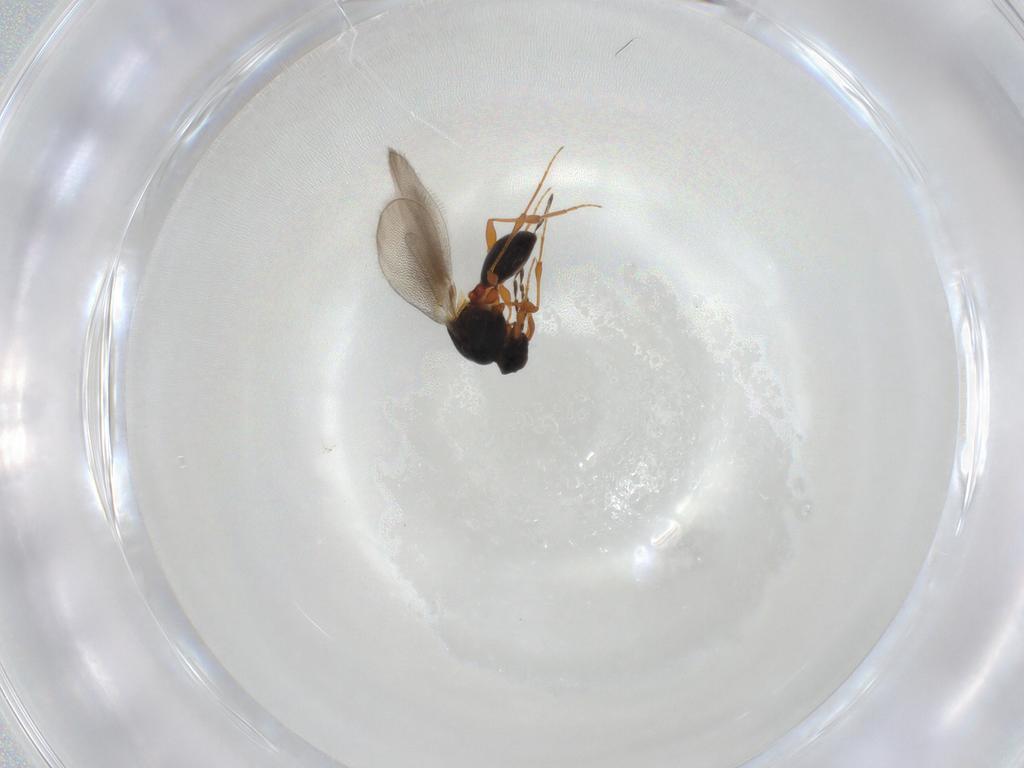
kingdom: Animalia
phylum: Arthropoda
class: Insecta
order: Hymenoptera
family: Platygastridae
